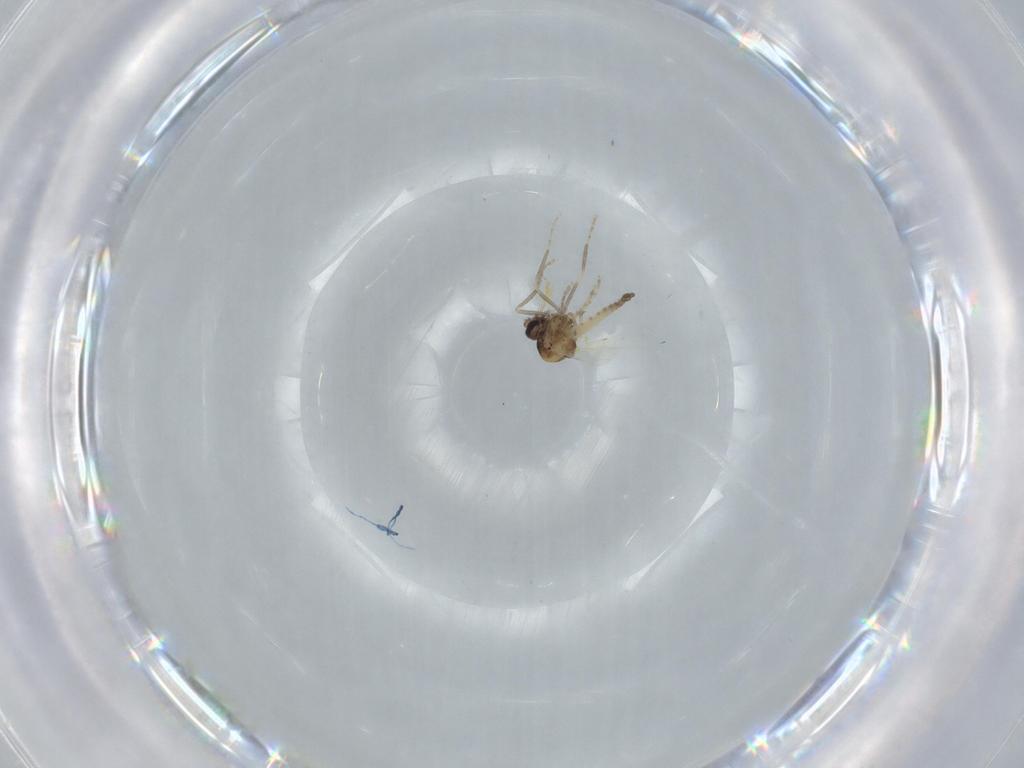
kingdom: Animalia
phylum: Arthropoda
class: Insecta
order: Diptera
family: Psychodidae
